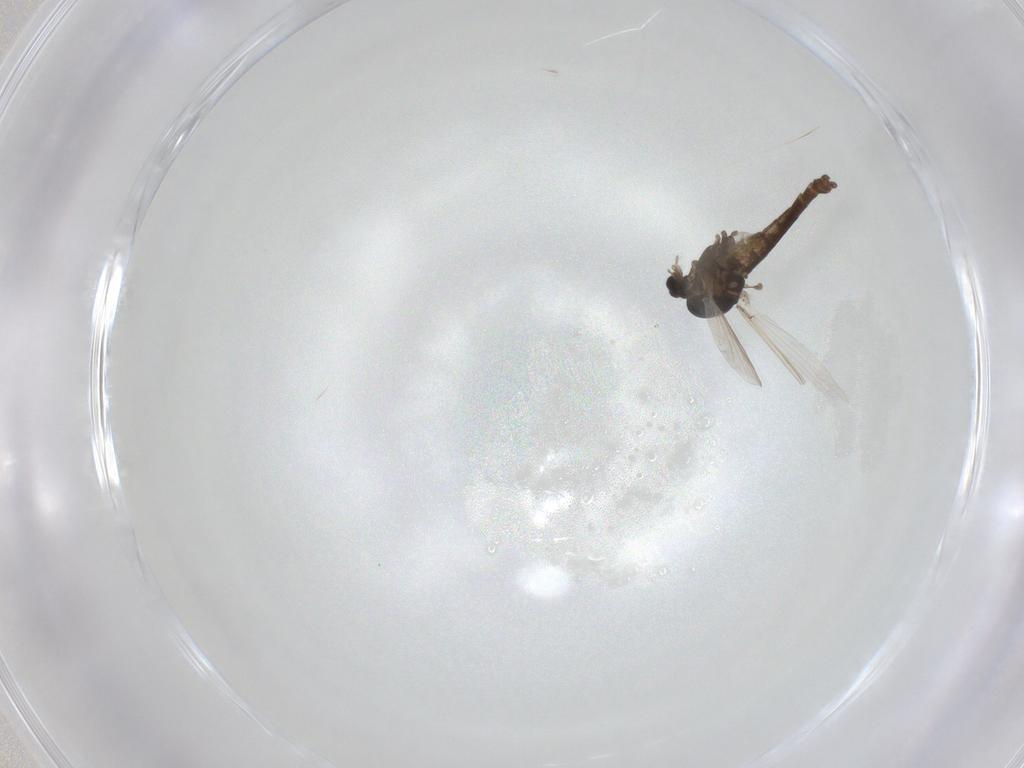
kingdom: Animalia
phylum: Arthropoda
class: Insecta
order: Diptera
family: Chironomidae
